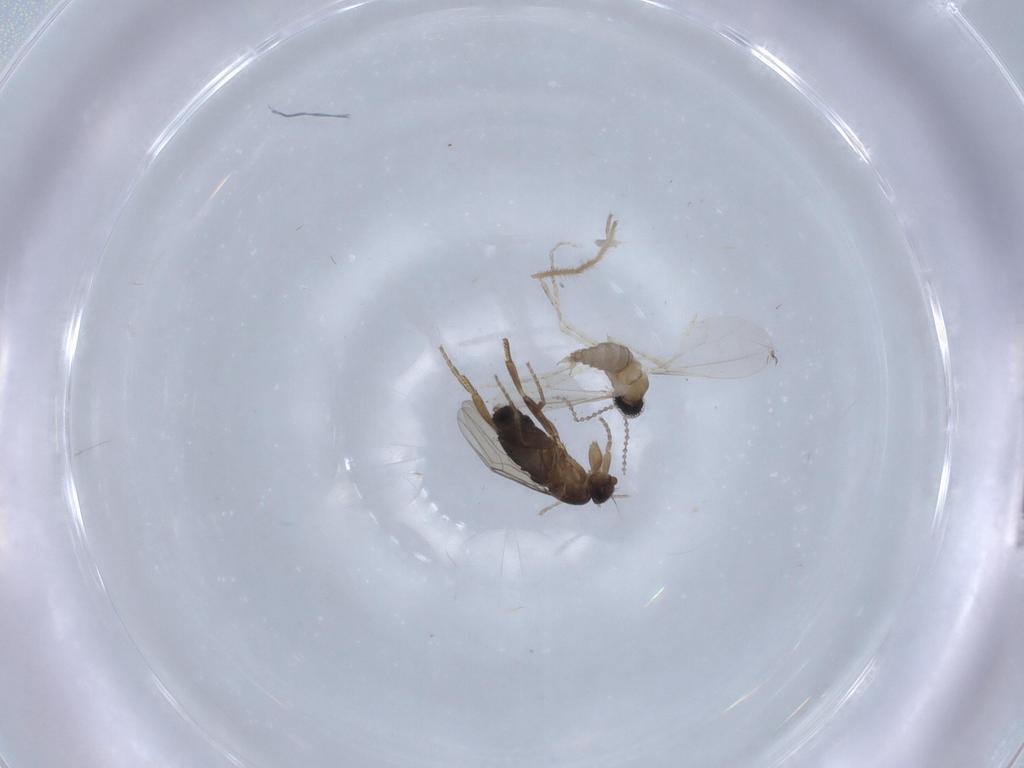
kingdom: Animalia
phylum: Arthropoda
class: Insecta
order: Diptera
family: Cecidomyiidae
